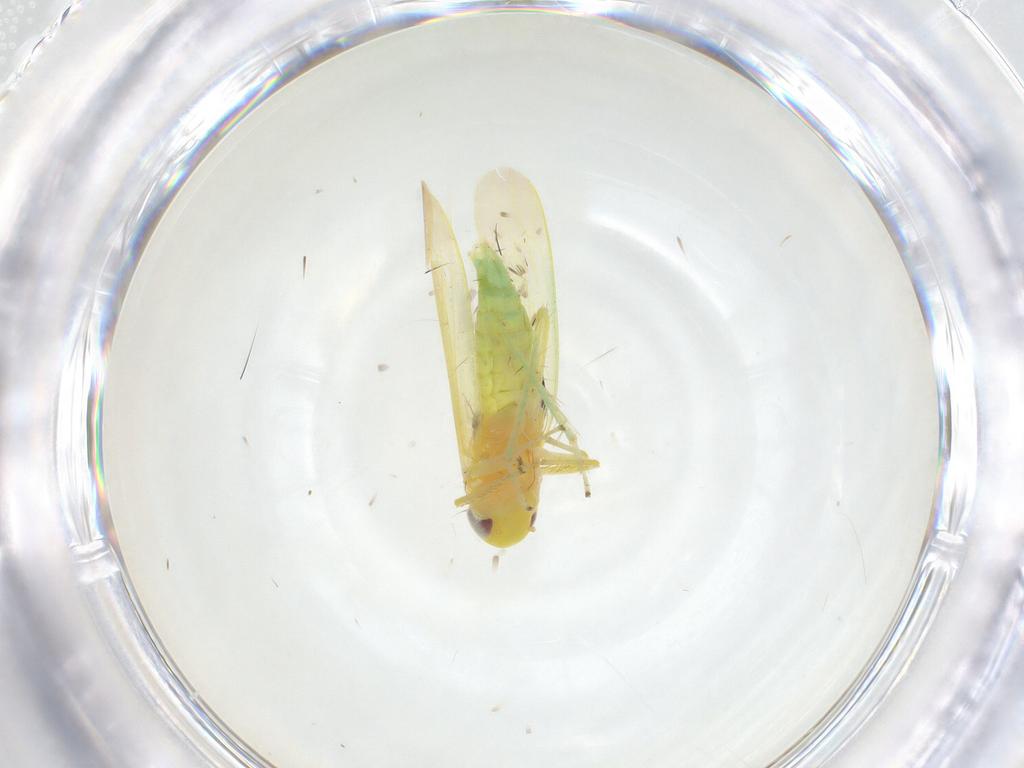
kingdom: Animalia
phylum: Arthropoda
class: Insecta
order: Hemiptera
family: Cicadellidae
